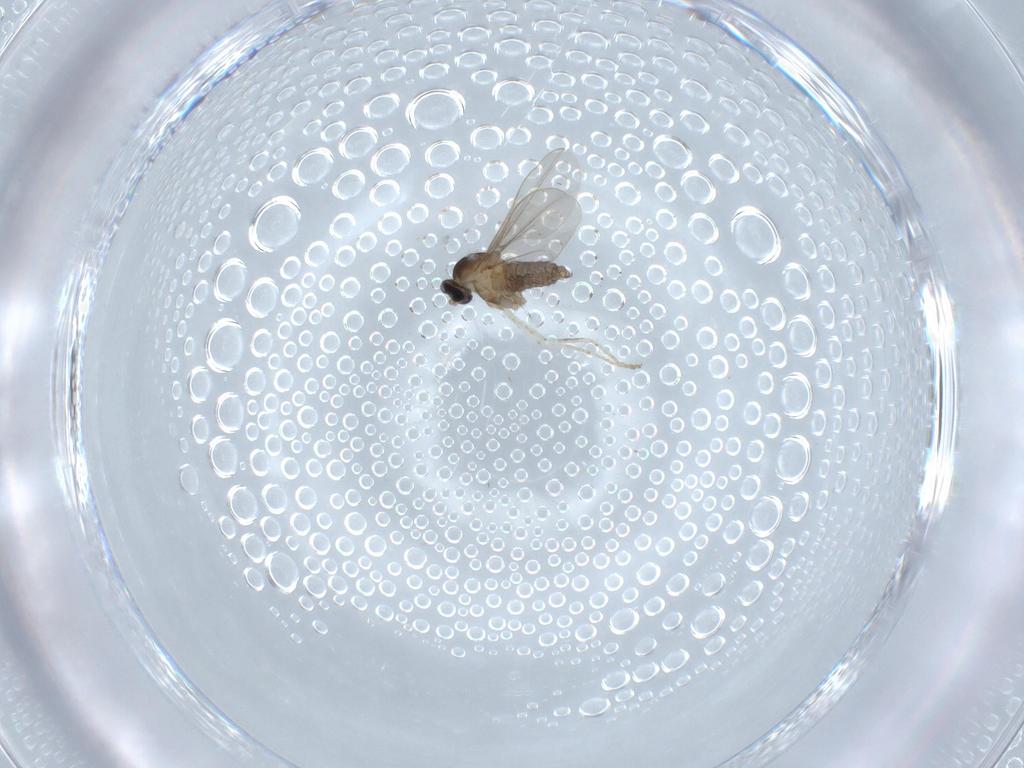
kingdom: Animalia
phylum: Arthropoda
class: Insecta
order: Diptera
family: Cecidomyiidae
